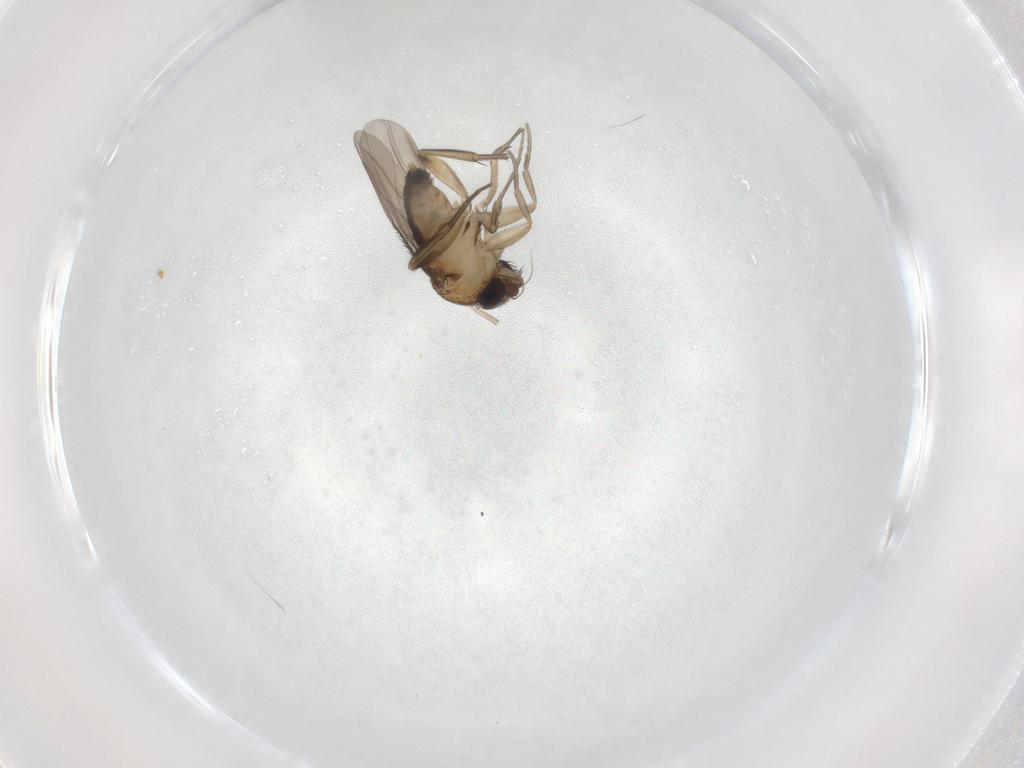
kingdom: Animalia
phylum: Arthropoda
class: Insecta
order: Diptera
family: Phoridae
